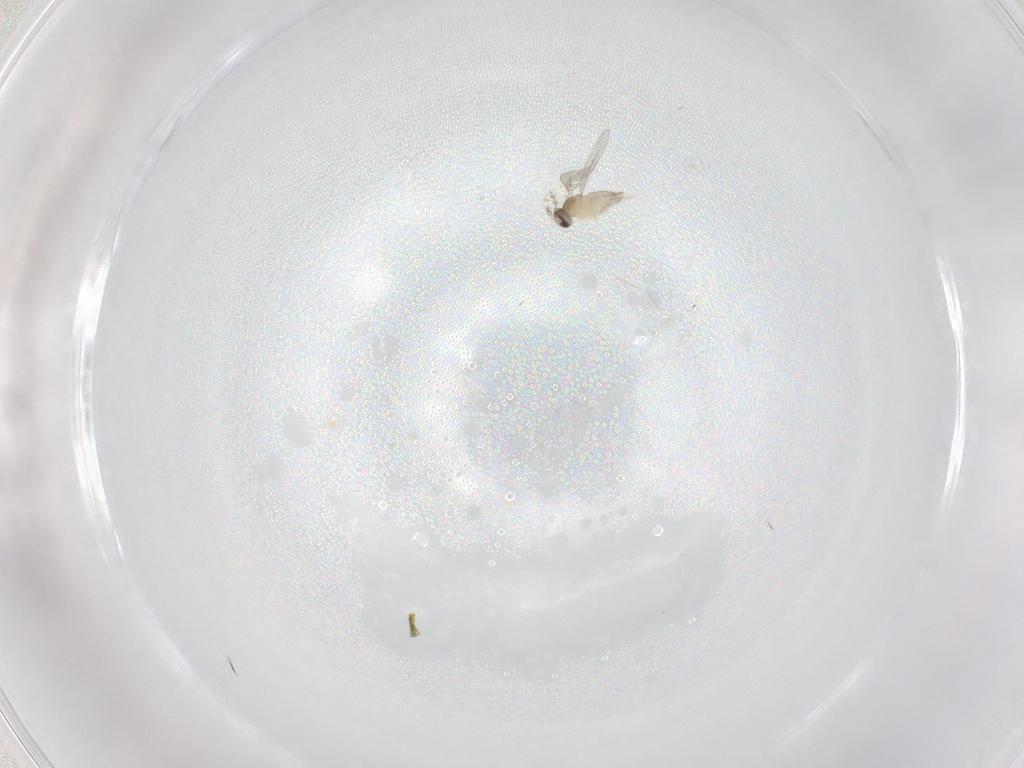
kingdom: Animalia
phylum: Arthropoda
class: Insecta
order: Diptera
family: Cecidomyiidae
